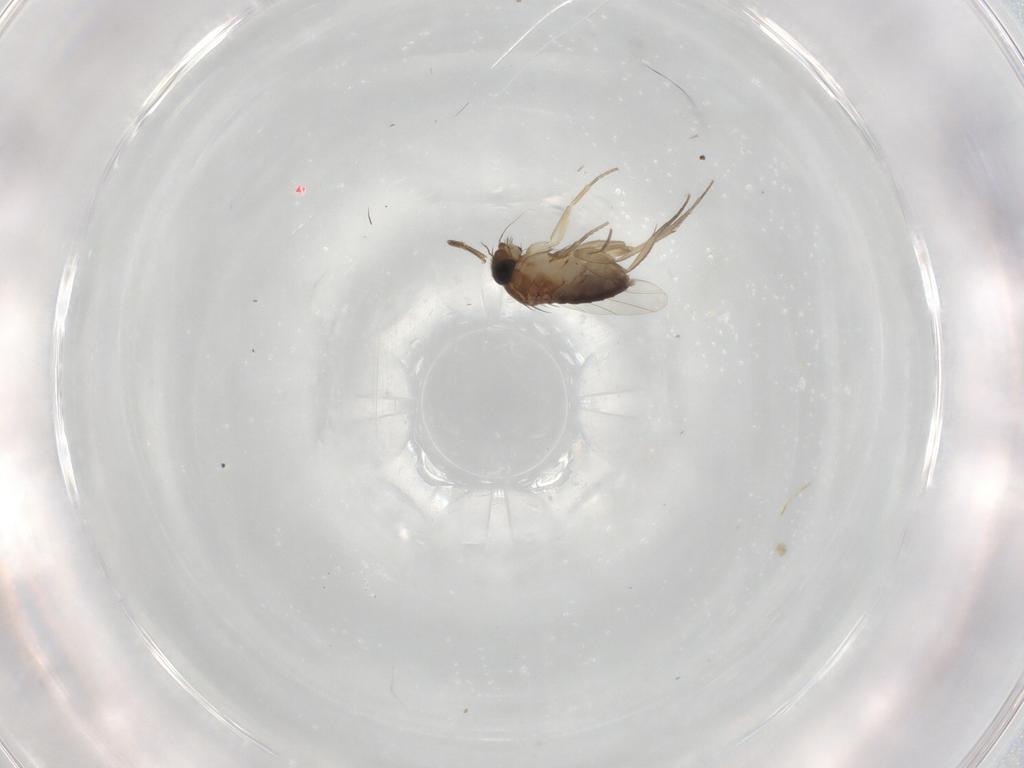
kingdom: Animalia
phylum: Arthropoda
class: Insecta
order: Diptera
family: Phoridae
